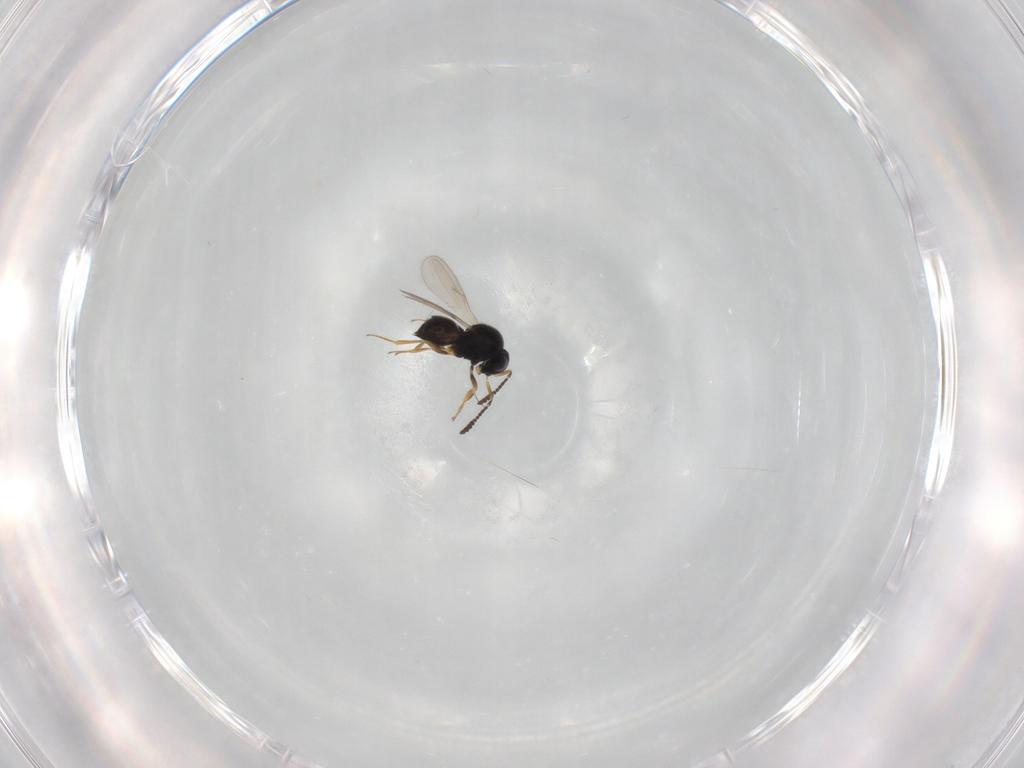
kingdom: Animalia
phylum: Arthropoda
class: Insecta
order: Hymenoptera
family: Scelionidae
